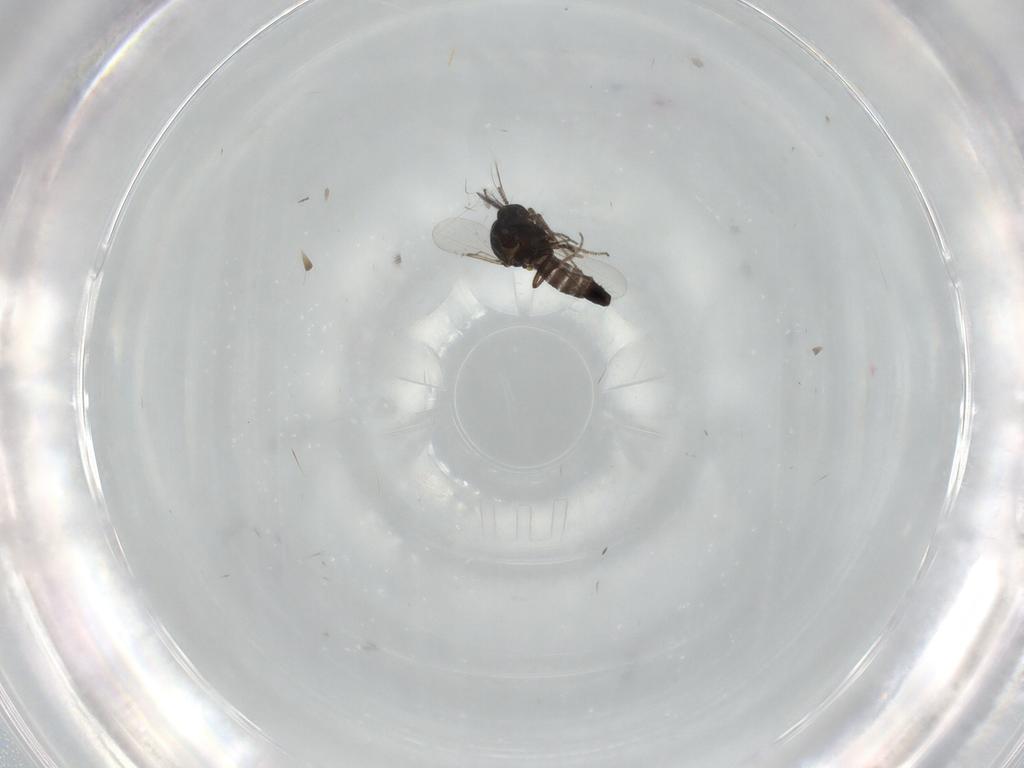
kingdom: Animalia
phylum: Arthropoda
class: Insecta
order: Diptera
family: Ceratopogonidae
